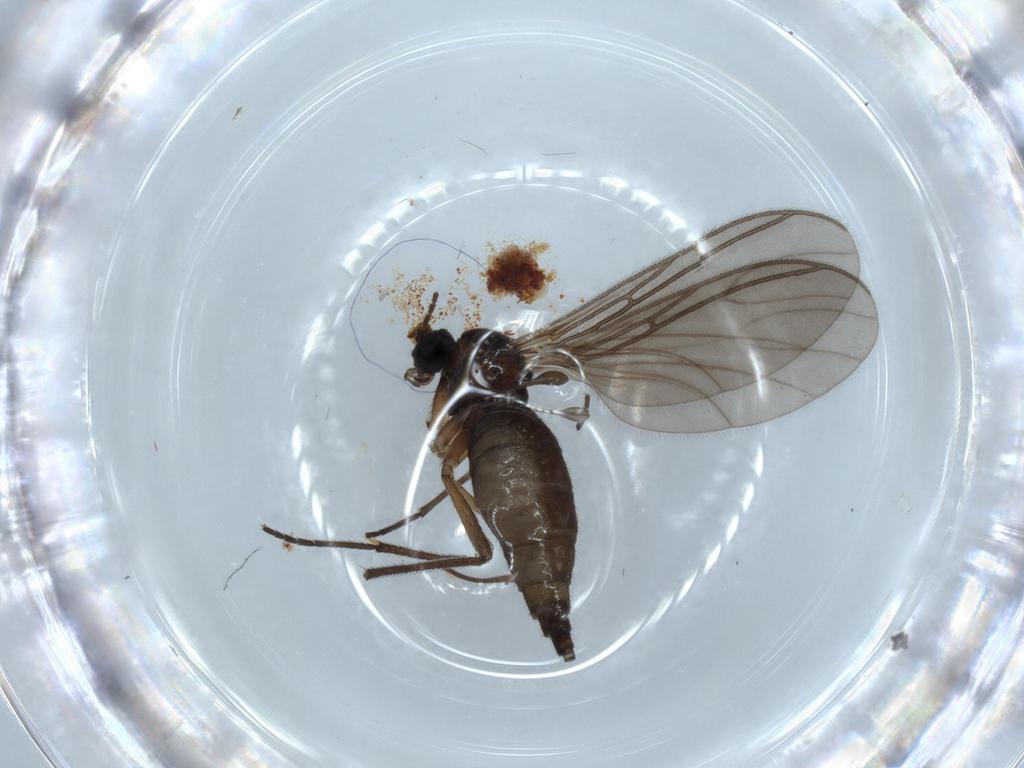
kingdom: Animalia
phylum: Arthropoda
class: Insecta
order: Diptera
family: Sciaridae
